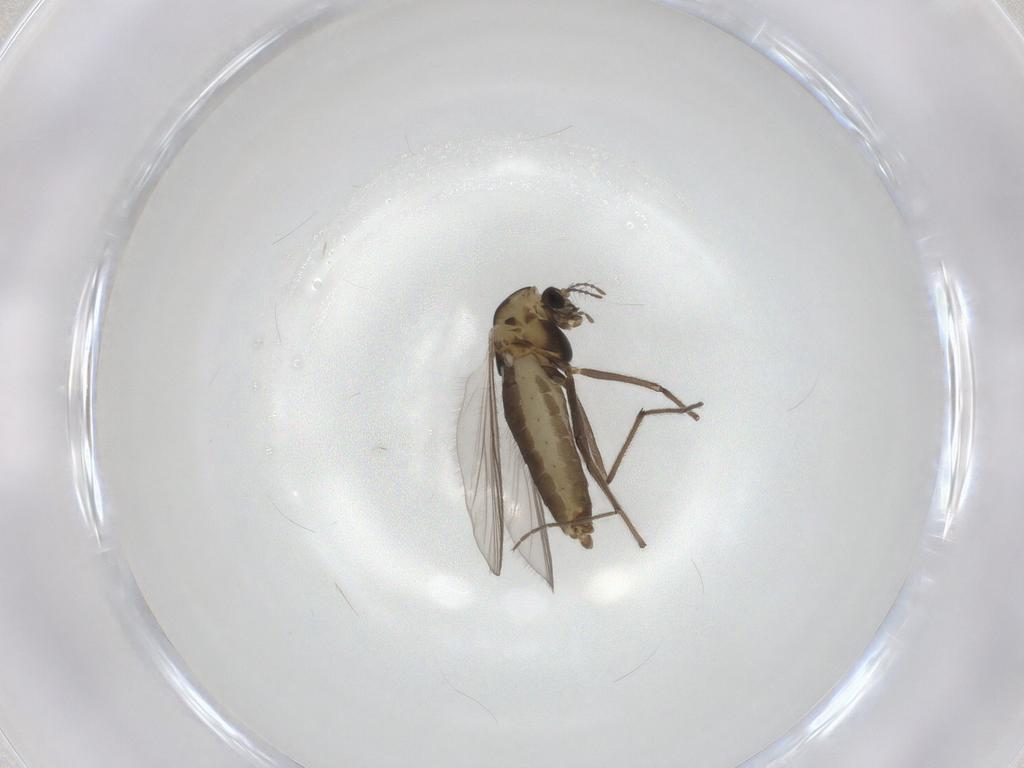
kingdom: Animalia
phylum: Arthropoda
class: Insecta
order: Diptera
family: Chironomidae
